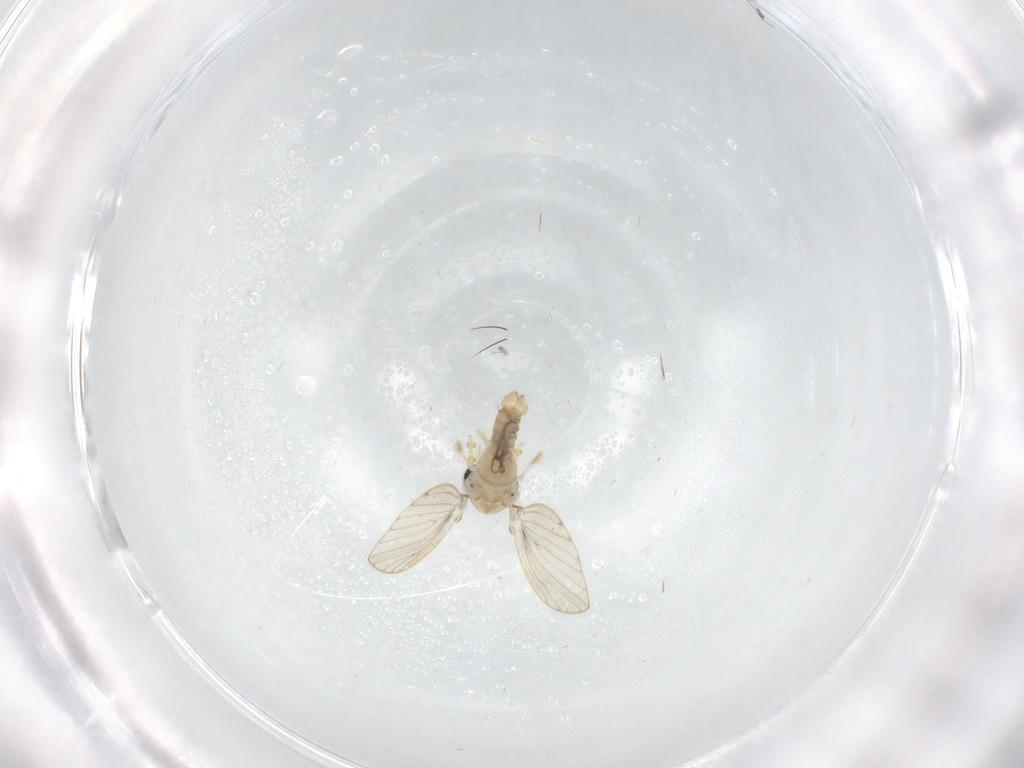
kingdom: Animalia
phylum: Arthropoda
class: Insecta
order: Diptera
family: Psychodidae
